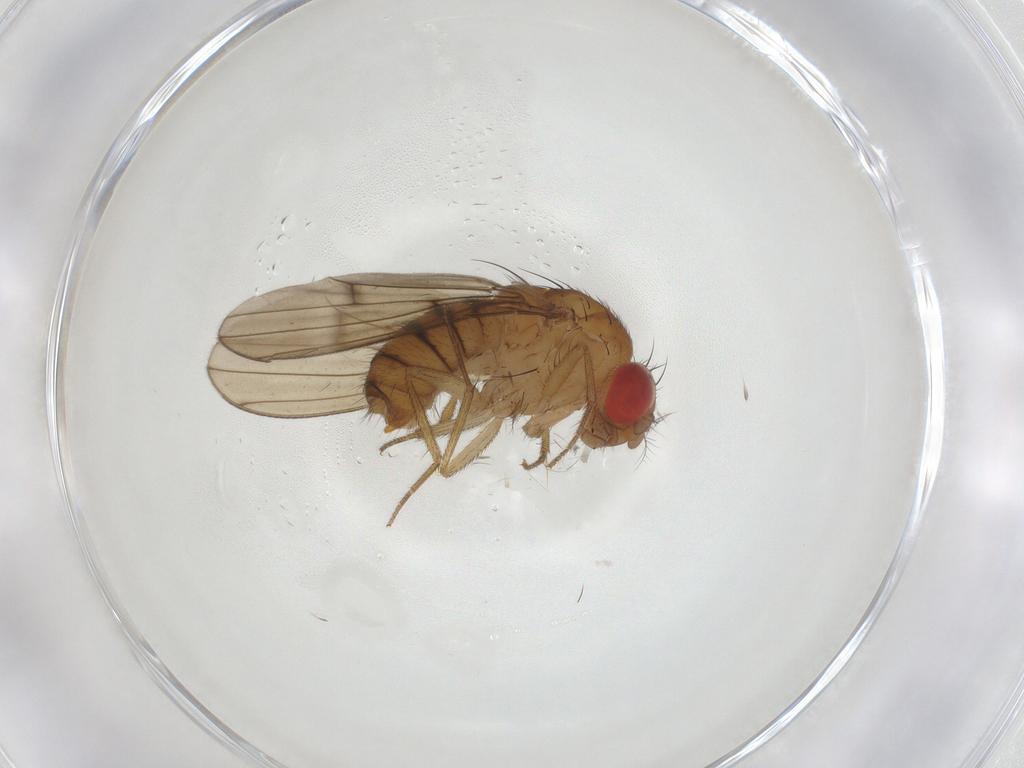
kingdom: Animalia
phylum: Arthropoda
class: Insecta
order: Diptera
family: Drosophilidae
